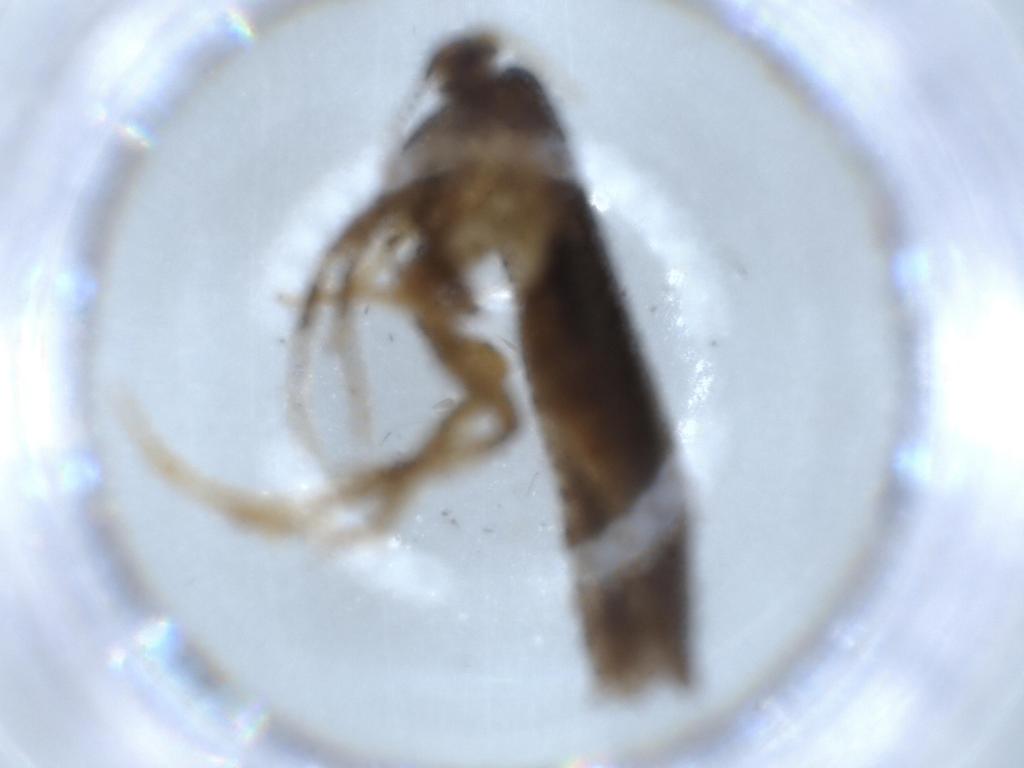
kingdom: Animalia
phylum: Arthropoda
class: Insecta
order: Lepidoptera
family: Lecithoceridae
